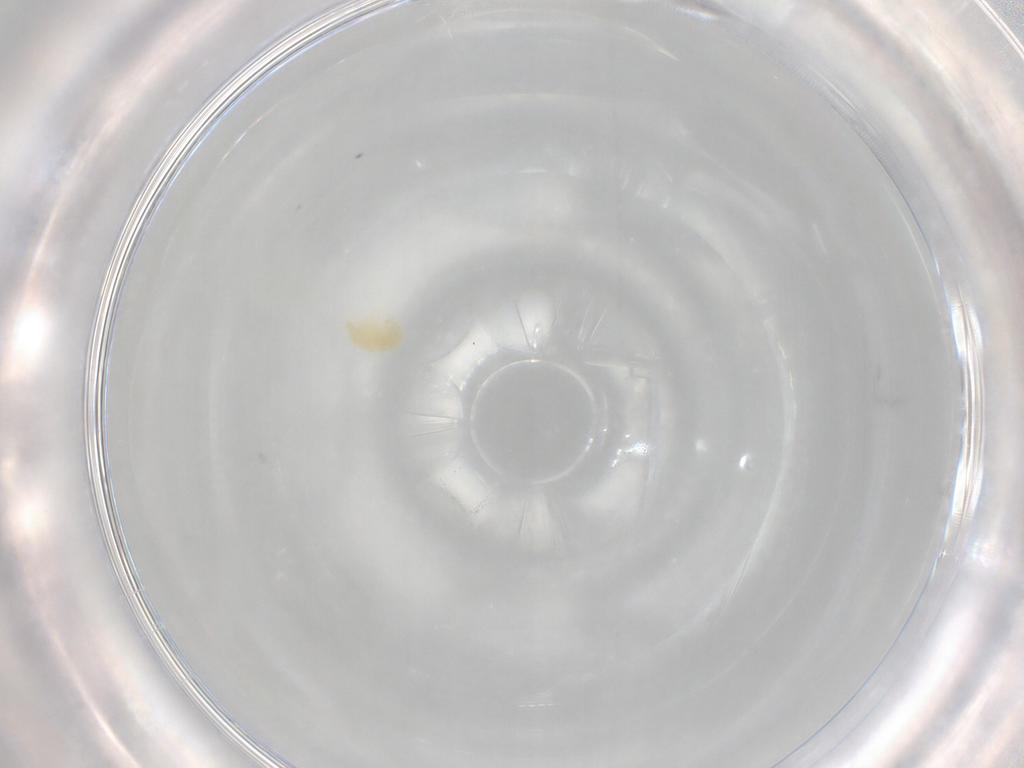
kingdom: Animalia
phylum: Arthropoda
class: Arachnida
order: Trombidiformes
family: Eupodidae
